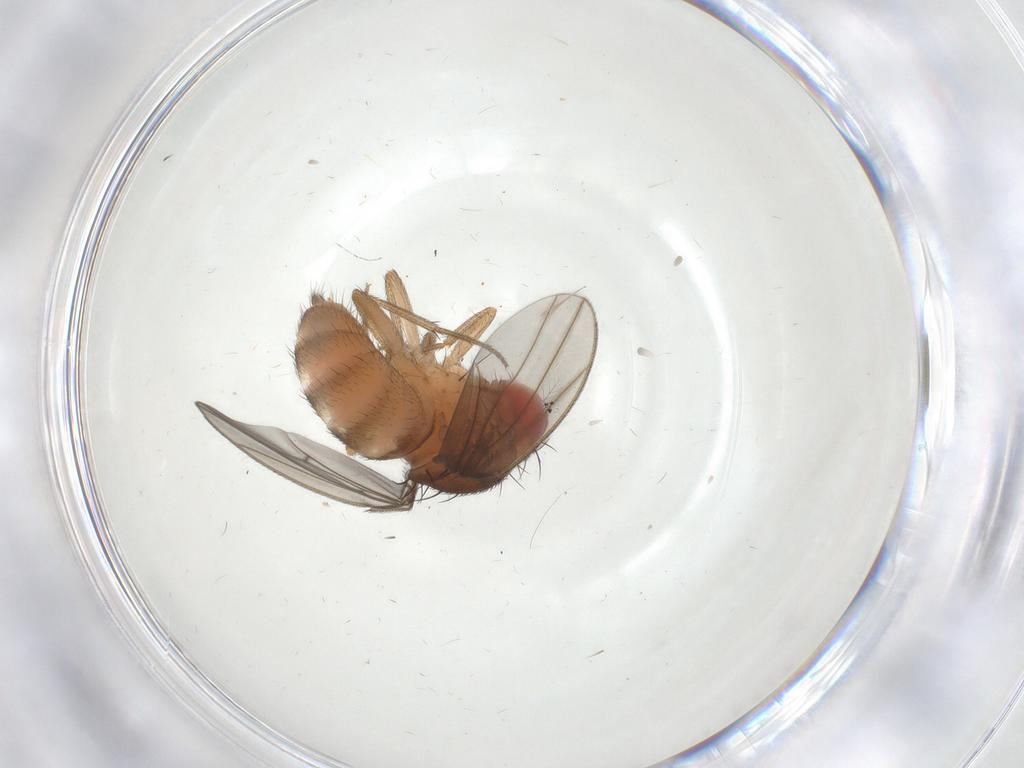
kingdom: Animalia
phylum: Arthropoda
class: Insecta
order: Diptera
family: Drosophilidae
